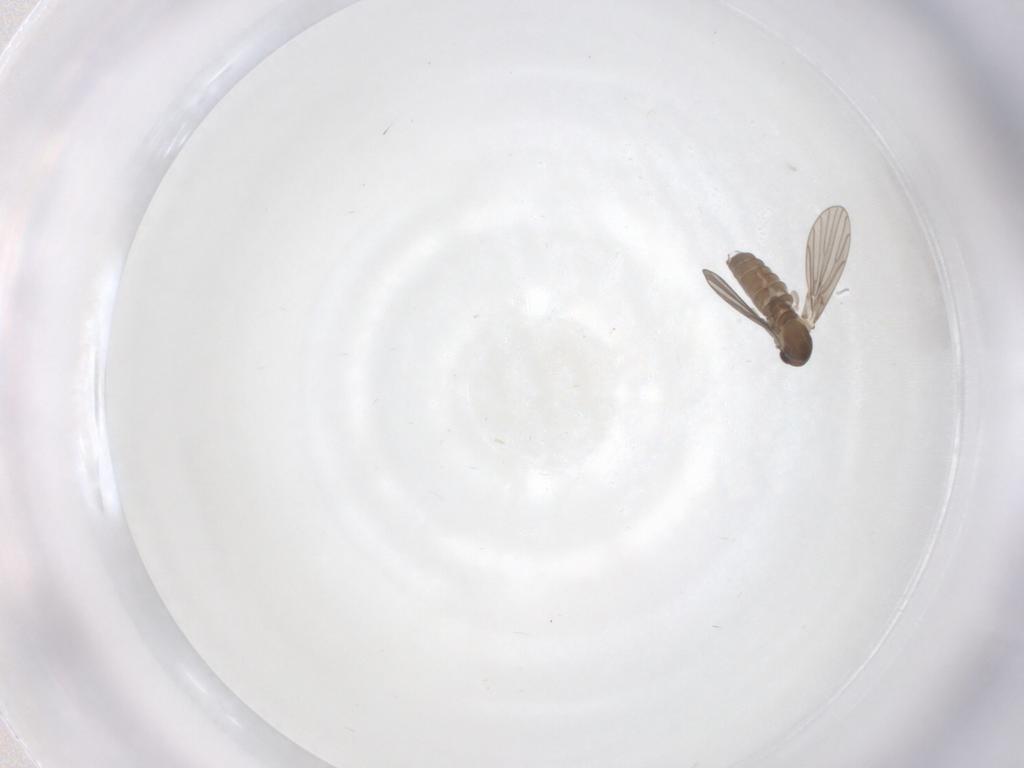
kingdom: Animalia
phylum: Arthropoda
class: Insecta
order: Diptera
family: Psychodidae
